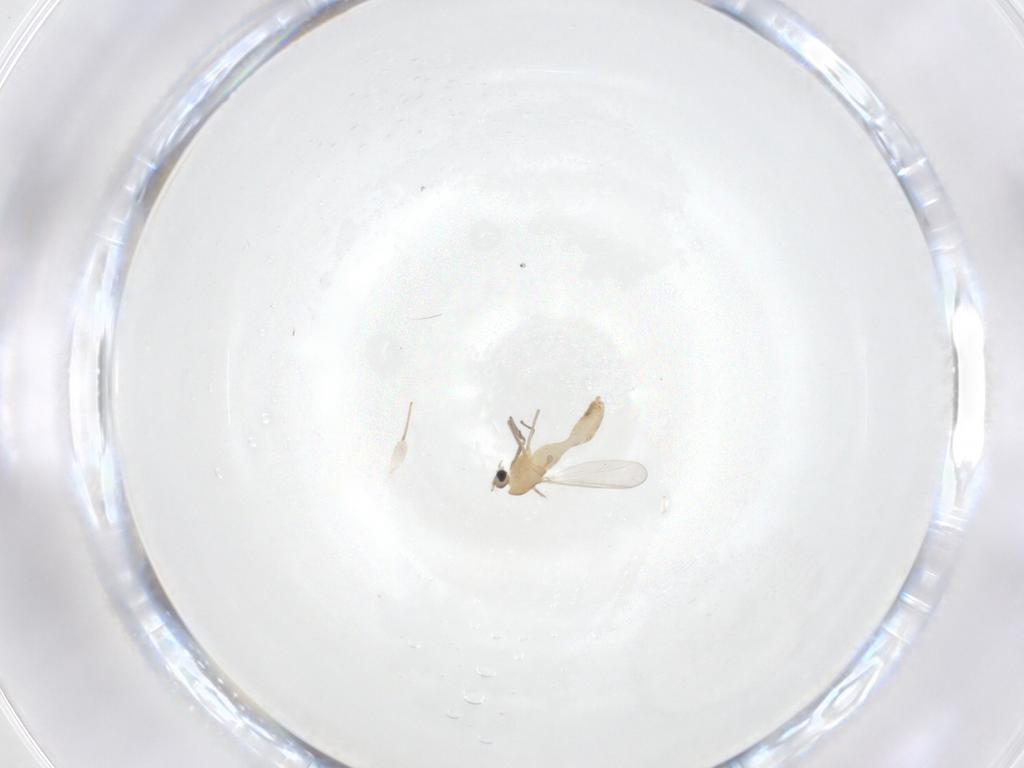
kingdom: Animalia
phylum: Arthropoda
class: Insecta
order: Diptera
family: Chironomidae
